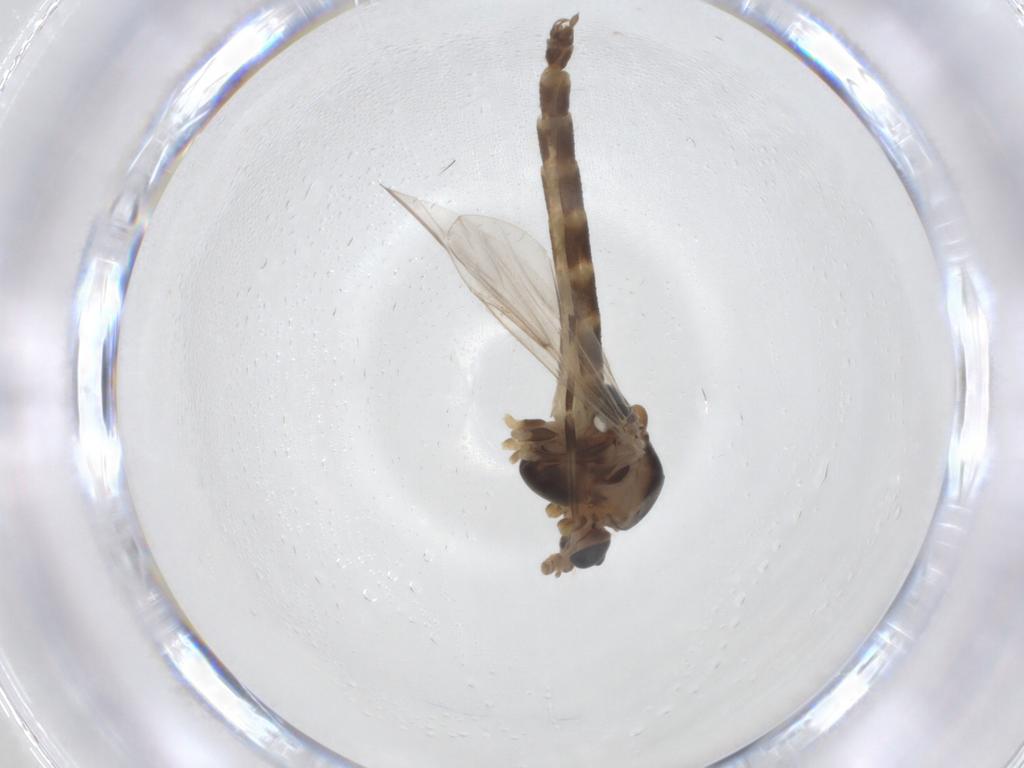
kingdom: Animalia
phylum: Arthropoda
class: Insecta
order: Diptera
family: Chironomidae
